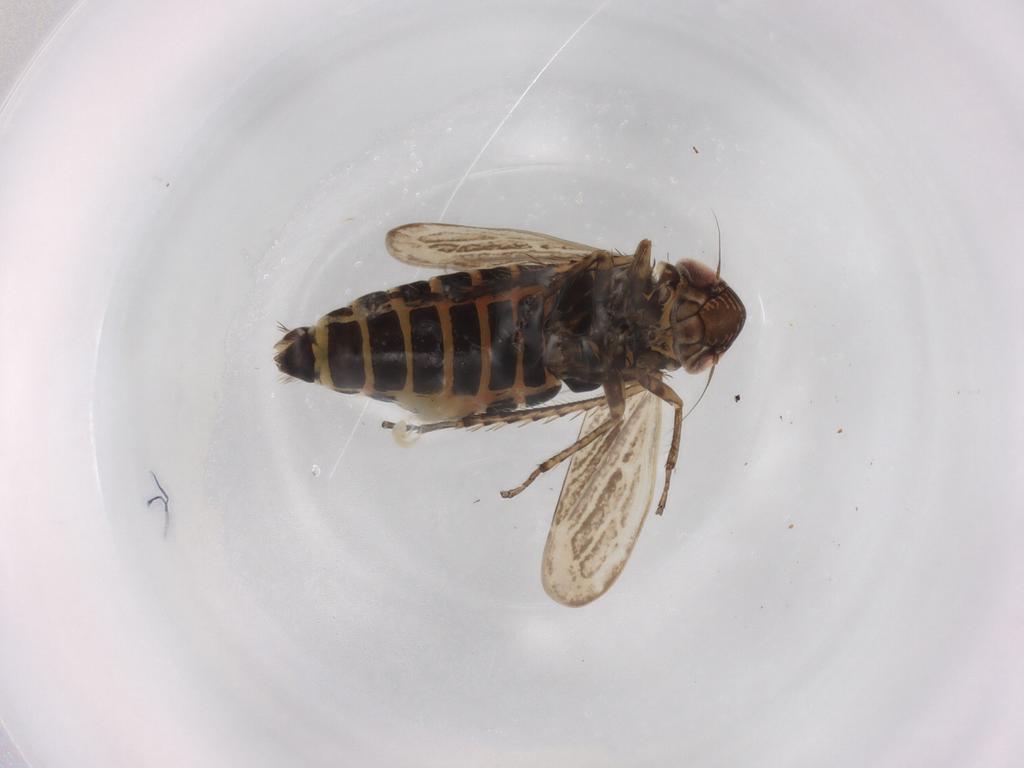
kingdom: Animalia
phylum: Arthropoda
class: Insecta
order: Hemiptera
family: Cicadellidae
